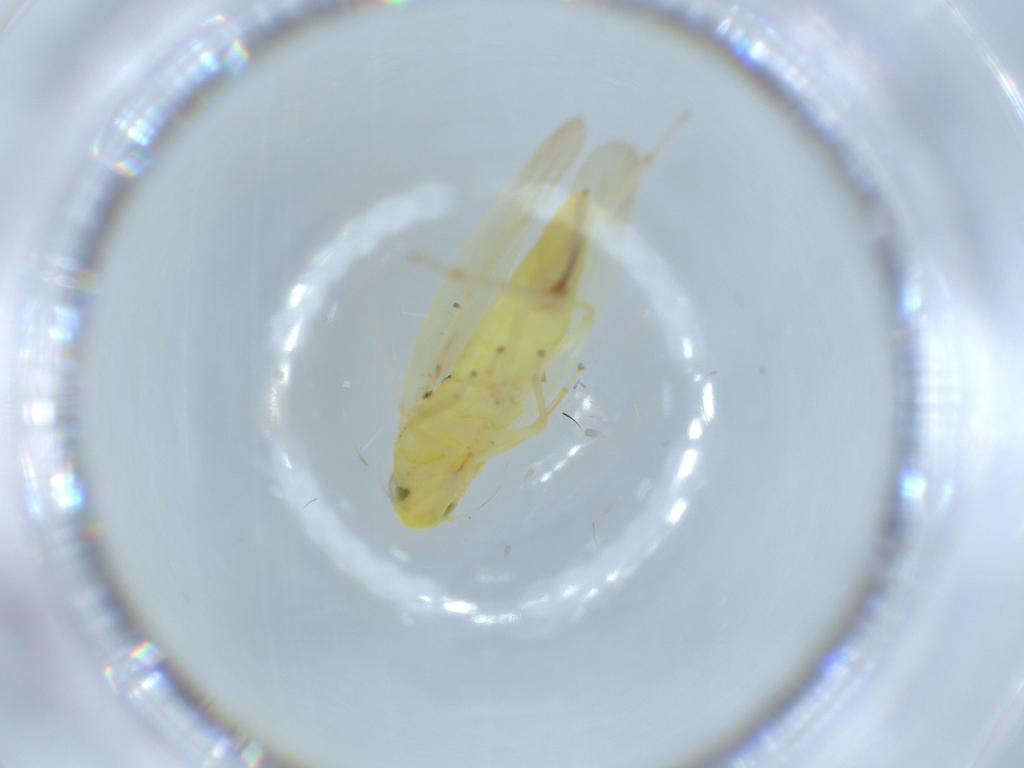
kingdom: Animalia
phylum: Arthropoda
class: Insecta
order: Hemiptera
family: Cicadellidae
